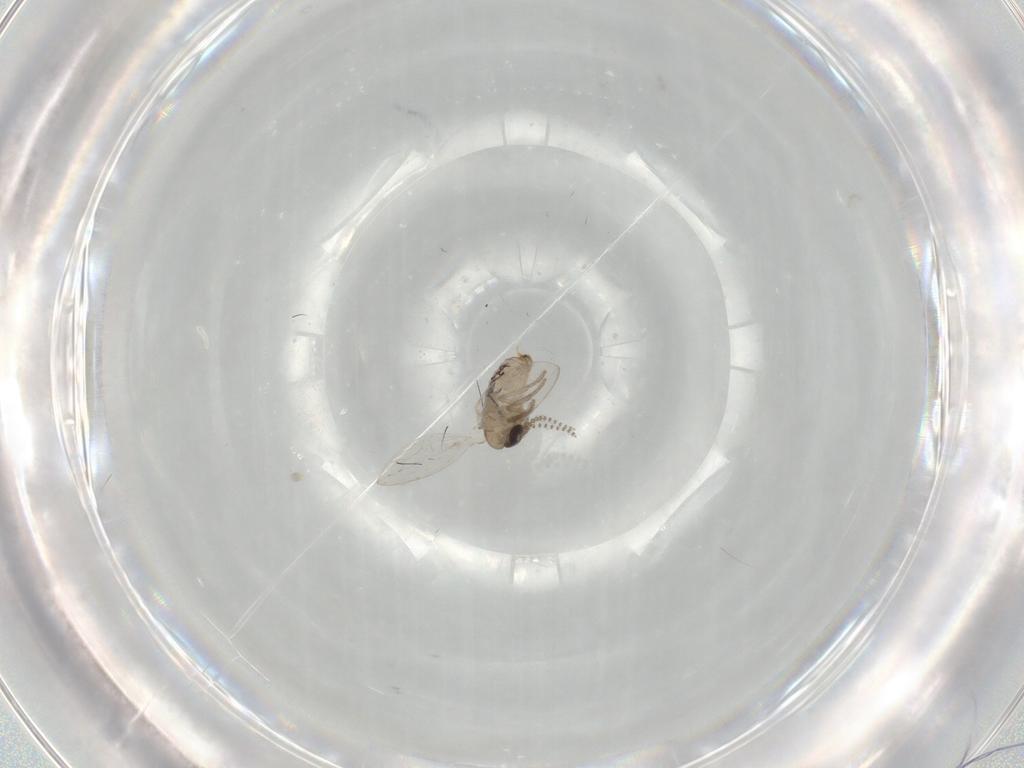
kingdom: Animalia
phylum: Arthropoda
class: Insecta
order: Diptera
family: Psychodidae
